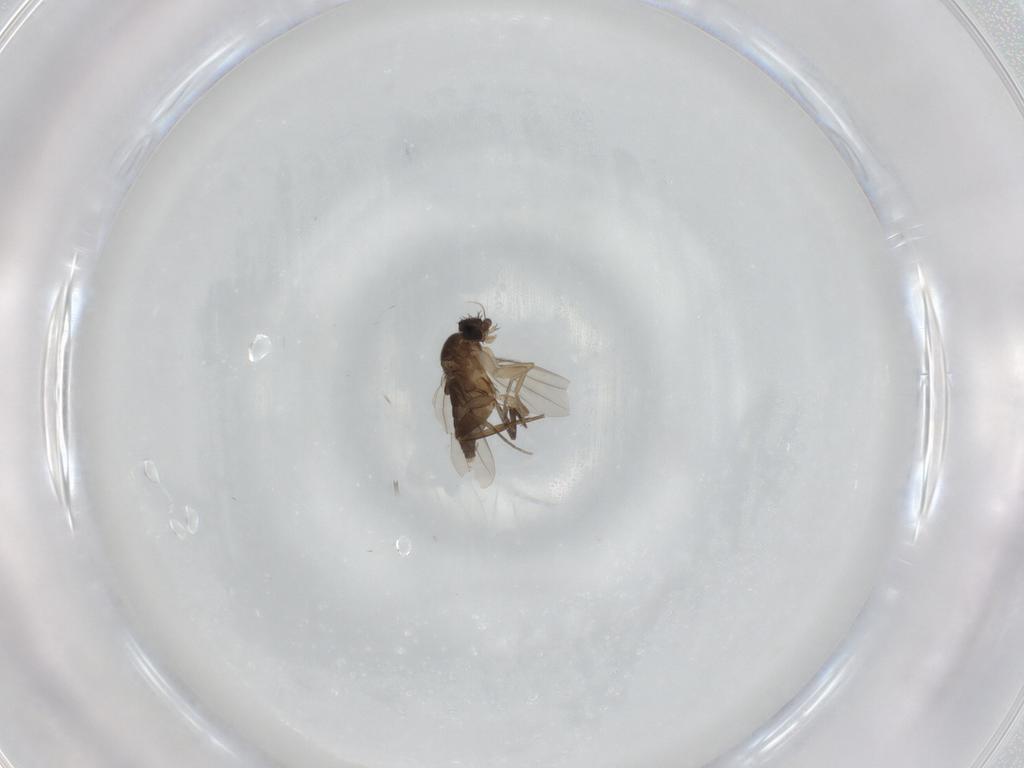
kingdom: Animalia
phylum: Arthropoda
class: Insecta
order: Diptera
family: Phoridae
